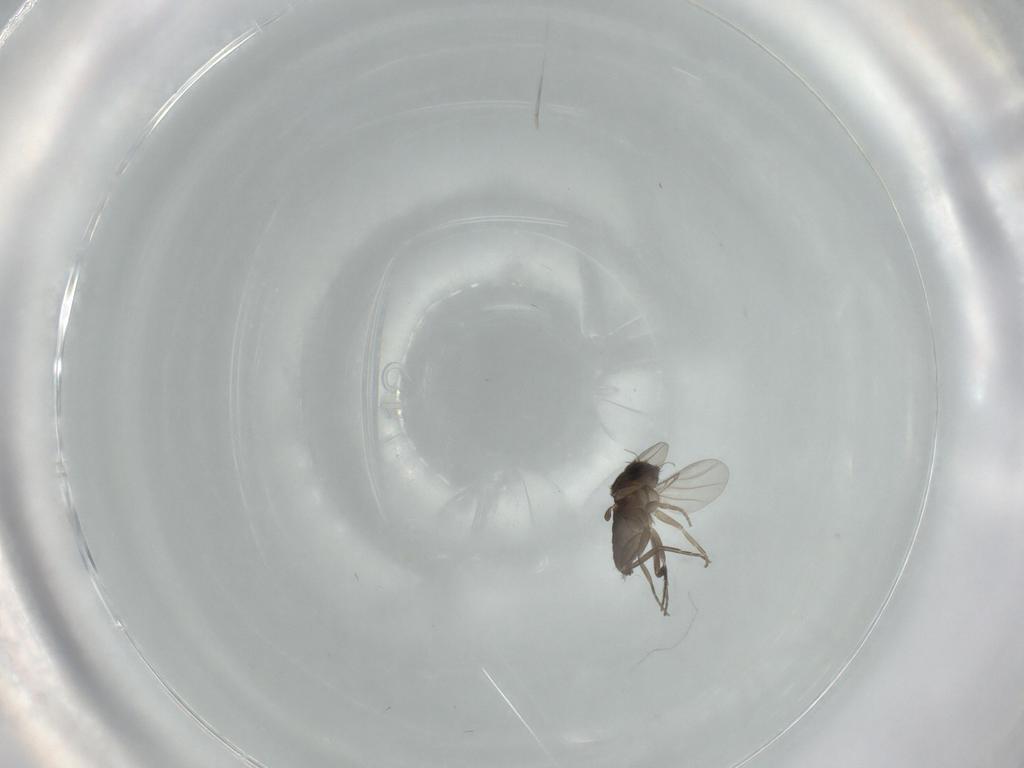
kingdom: Animalia
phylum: Arthropoda
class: Insecta
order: Diptera
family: Phoridae
